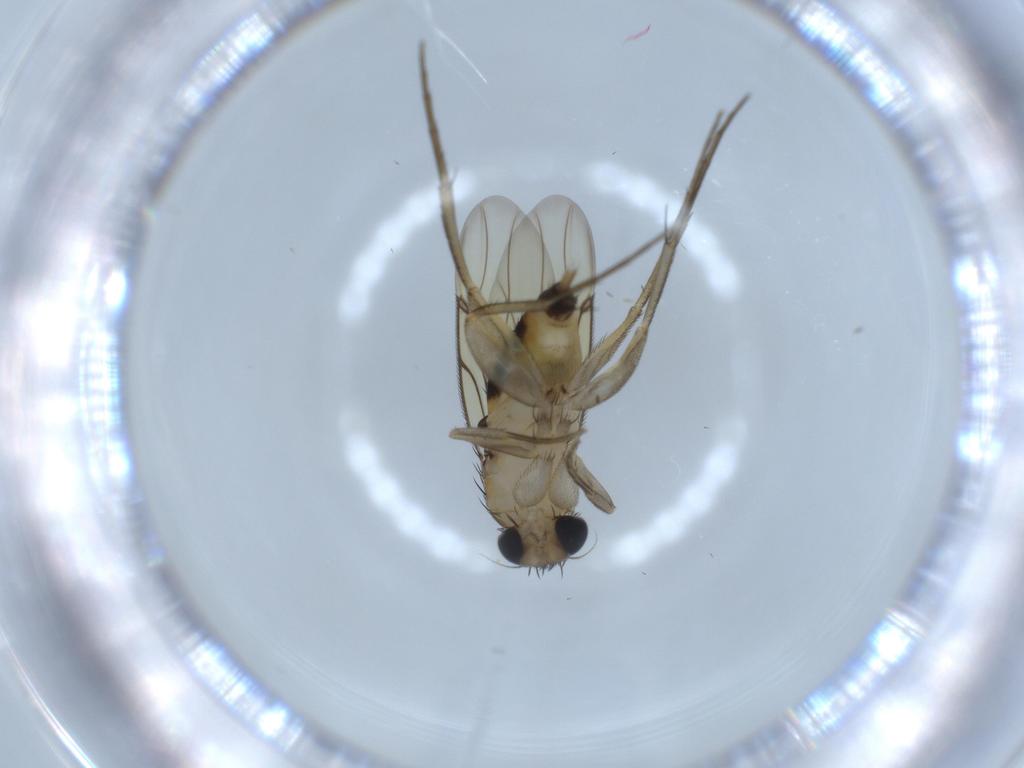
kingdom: Animalia
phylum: Arthropoda
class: Insecta
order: Diptera
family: Phoridae
